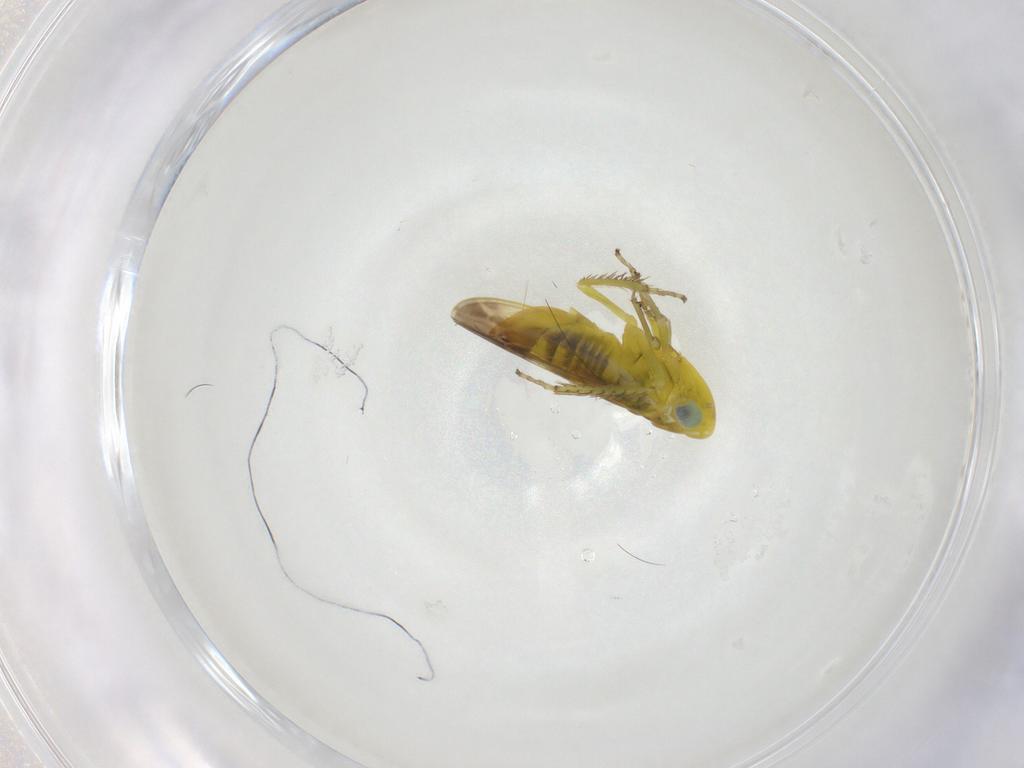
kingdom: Animalia
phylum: Arthropoda
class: Insecta
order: Hemiptera
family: Cicadellidae
